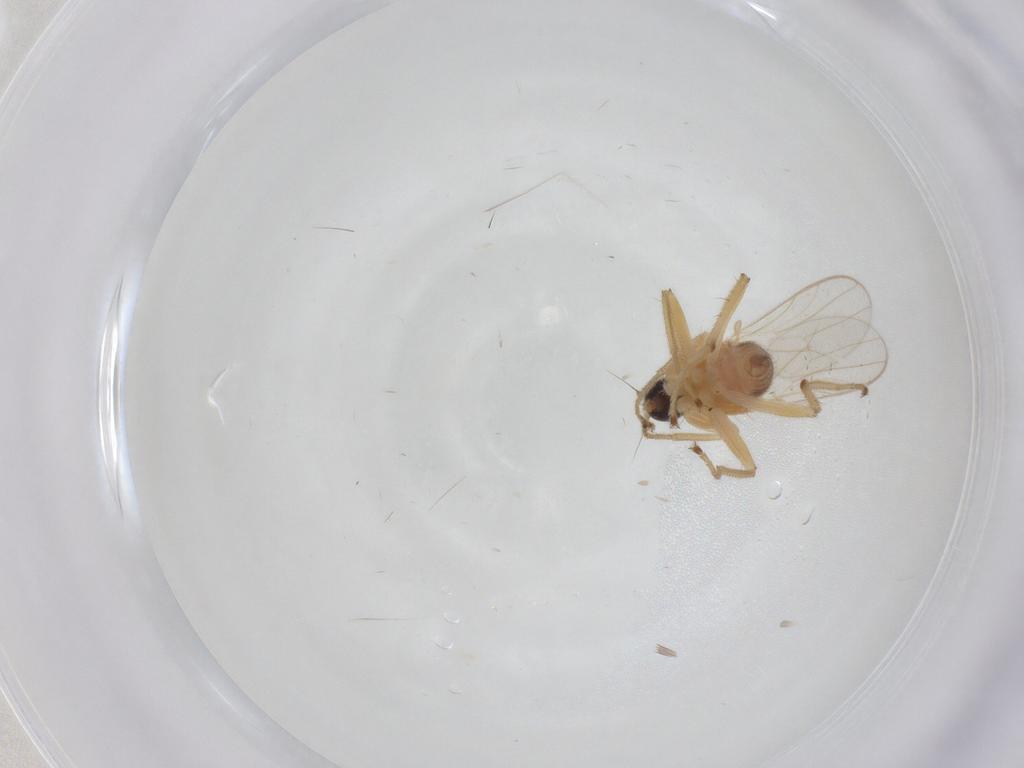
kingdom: Animalia
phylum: Arthropoda
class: Insecta
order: Diptera
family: Hybotidae
